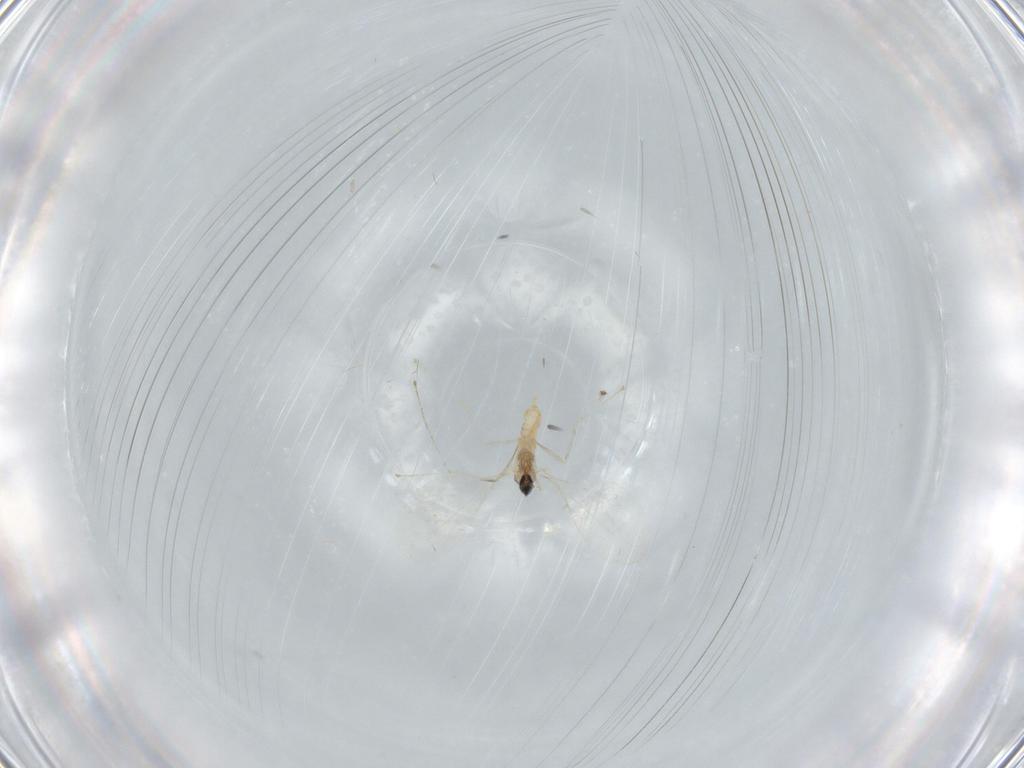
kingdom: Animalia
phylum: Arthropoda
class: Insecta
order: Diptera
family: Cecidomyiidae
